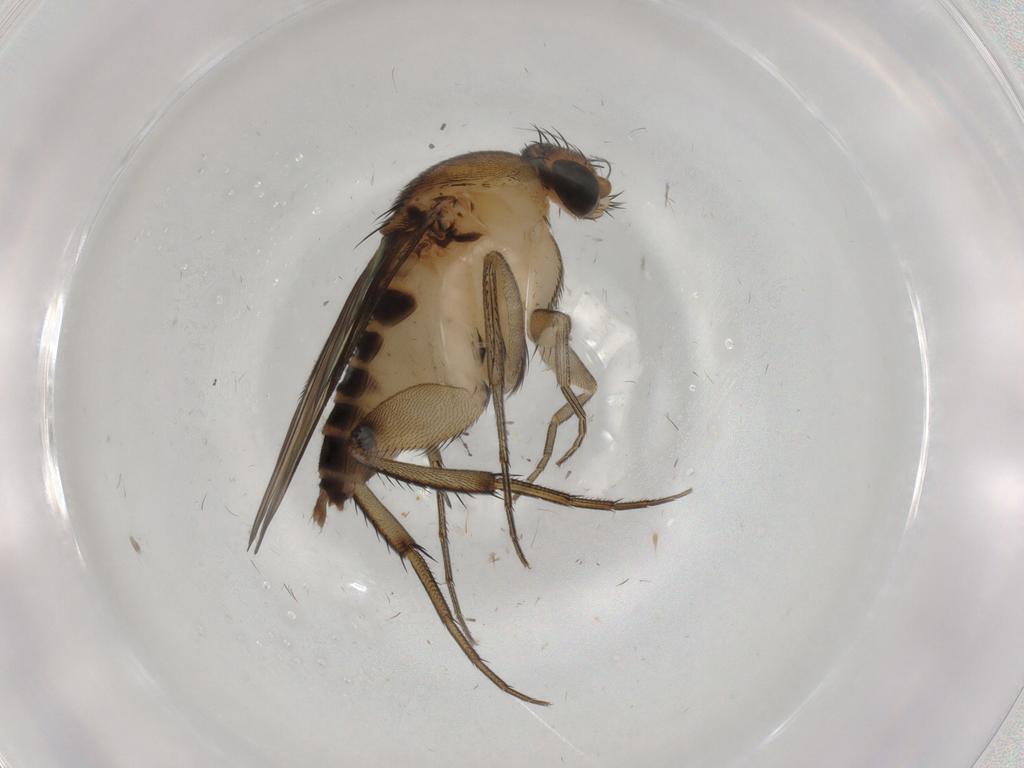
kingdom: Animalia
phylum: Arthropoda
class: Insecta
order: Diptera
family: Phoridae
